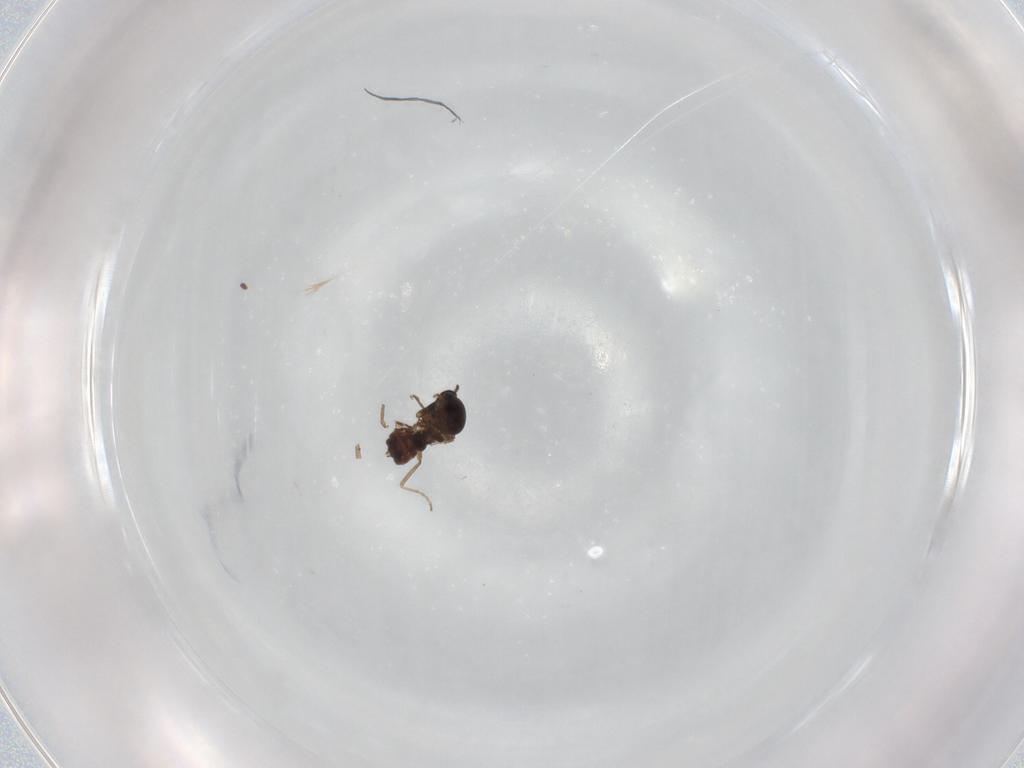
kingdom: Animalia
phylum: Arthropoda
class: Insecta
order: Diptera
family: Ceratopogonidae
